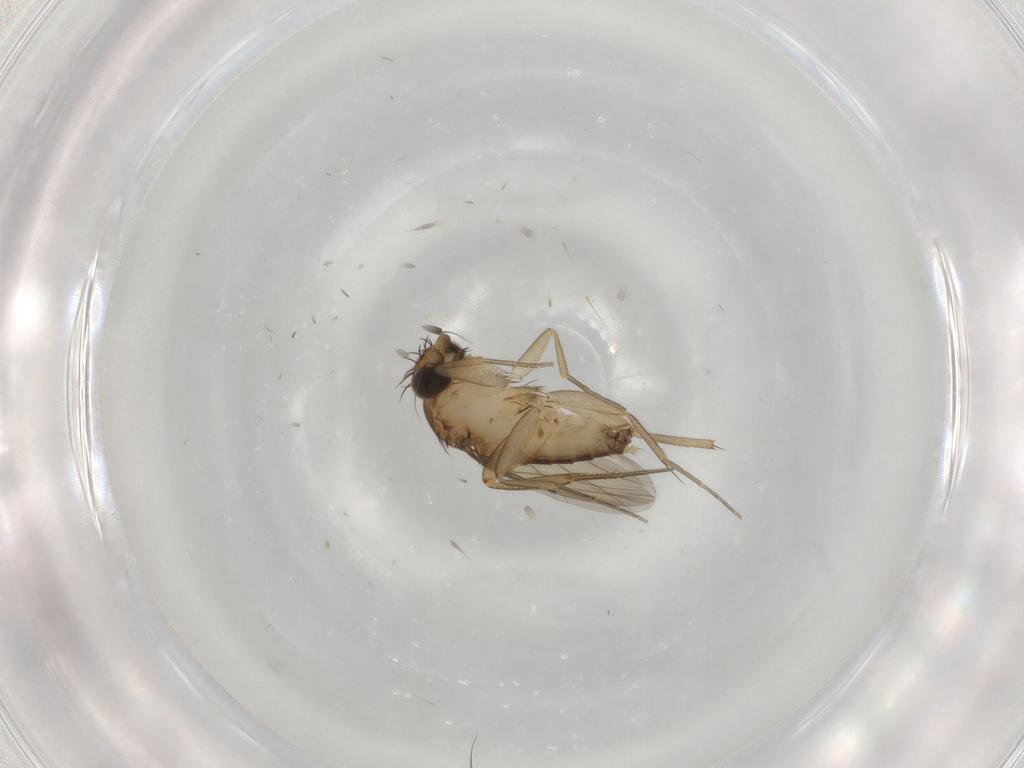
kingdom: Animalia
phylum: Arthropoda
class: Insecta
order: Diptera
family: Phoridae
